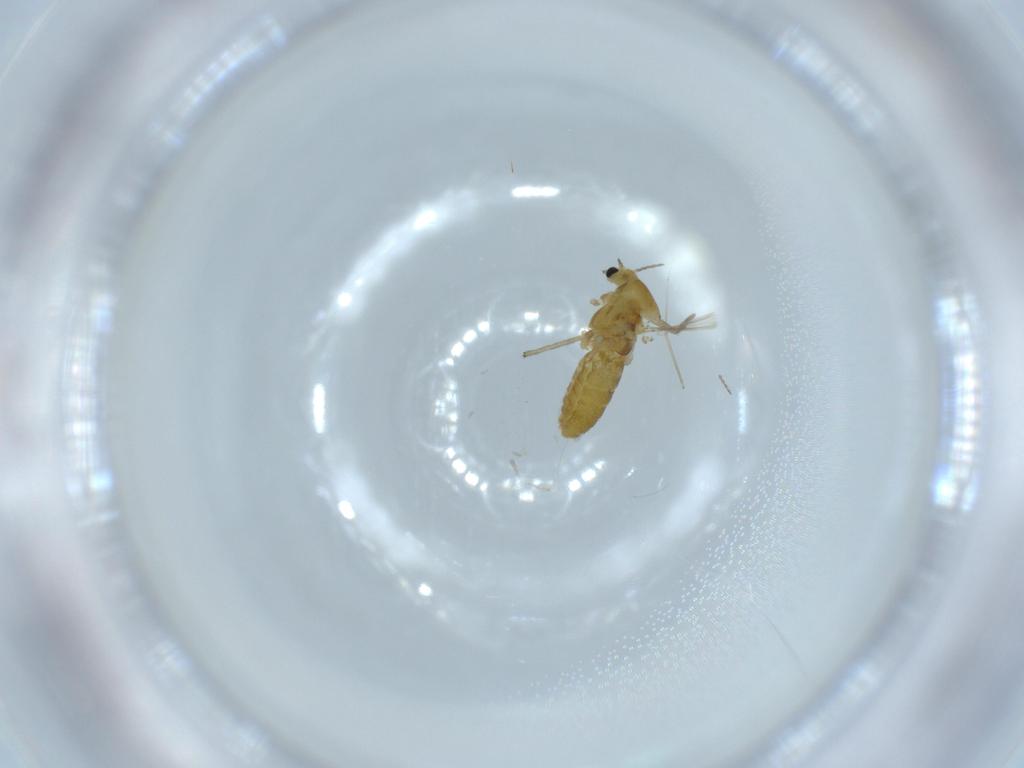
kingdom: Animalia
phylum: Arthropoda
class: Insecta
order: Diptera
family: Chironomidae
